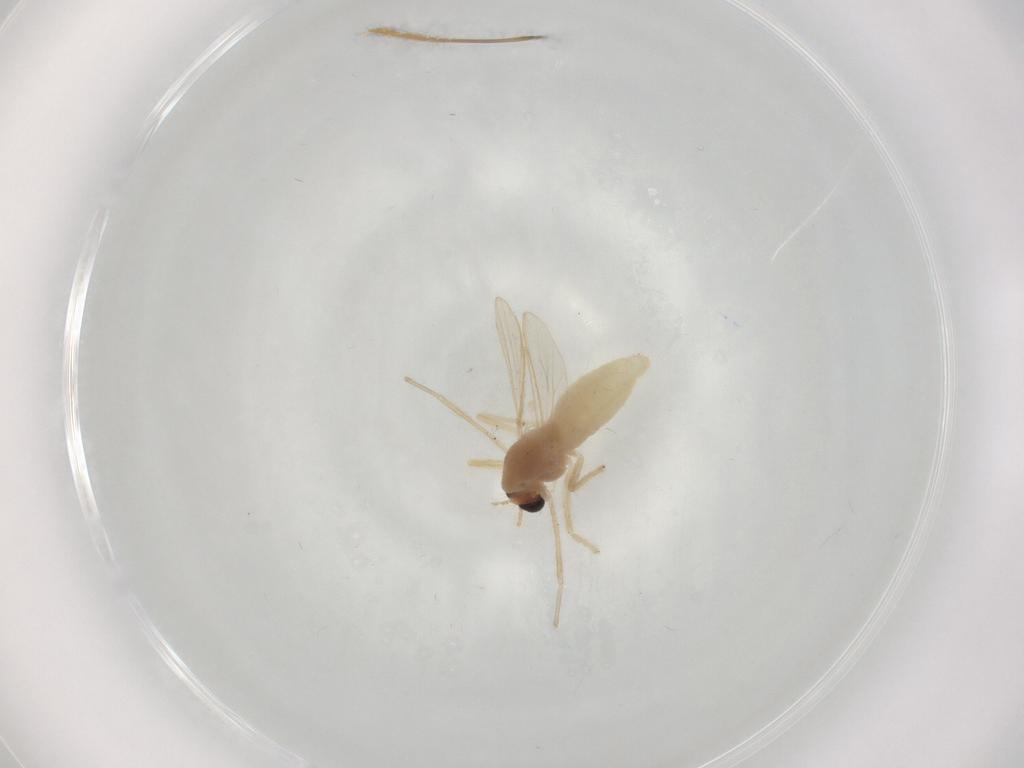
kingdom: Animalia
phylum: Arthropoda
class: Insecta
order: Diptera
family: Chironomidae
